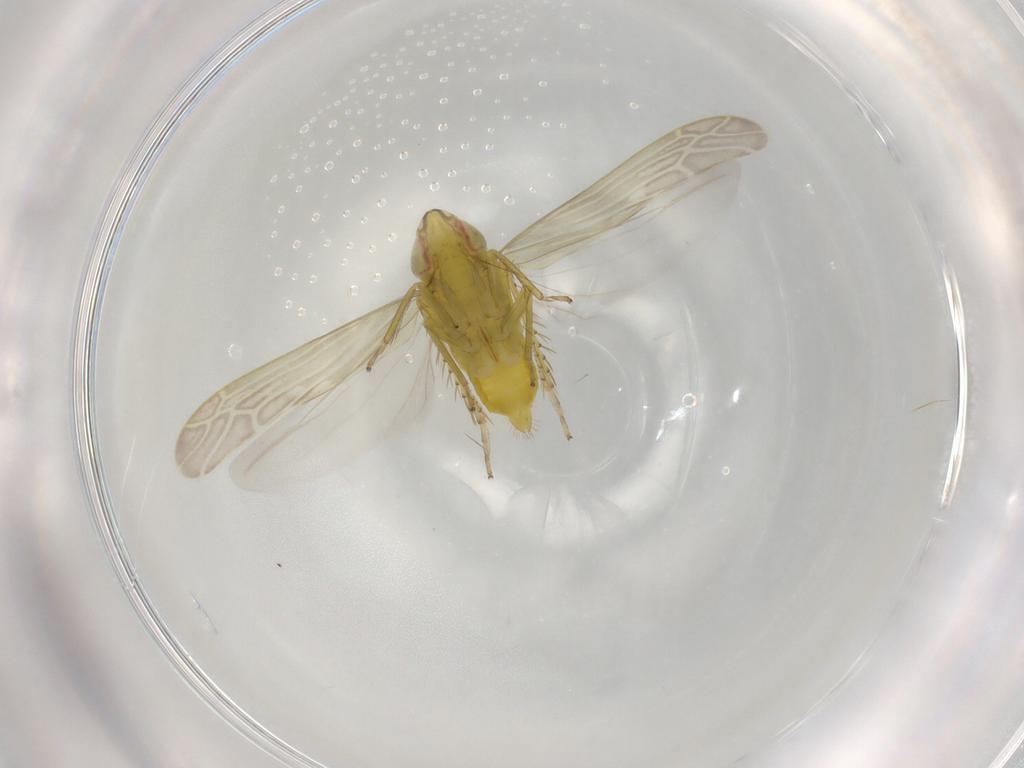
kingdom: Animalia
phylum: Arthropoda
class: Insecta
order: Hemiptera
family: Cicadellidae
